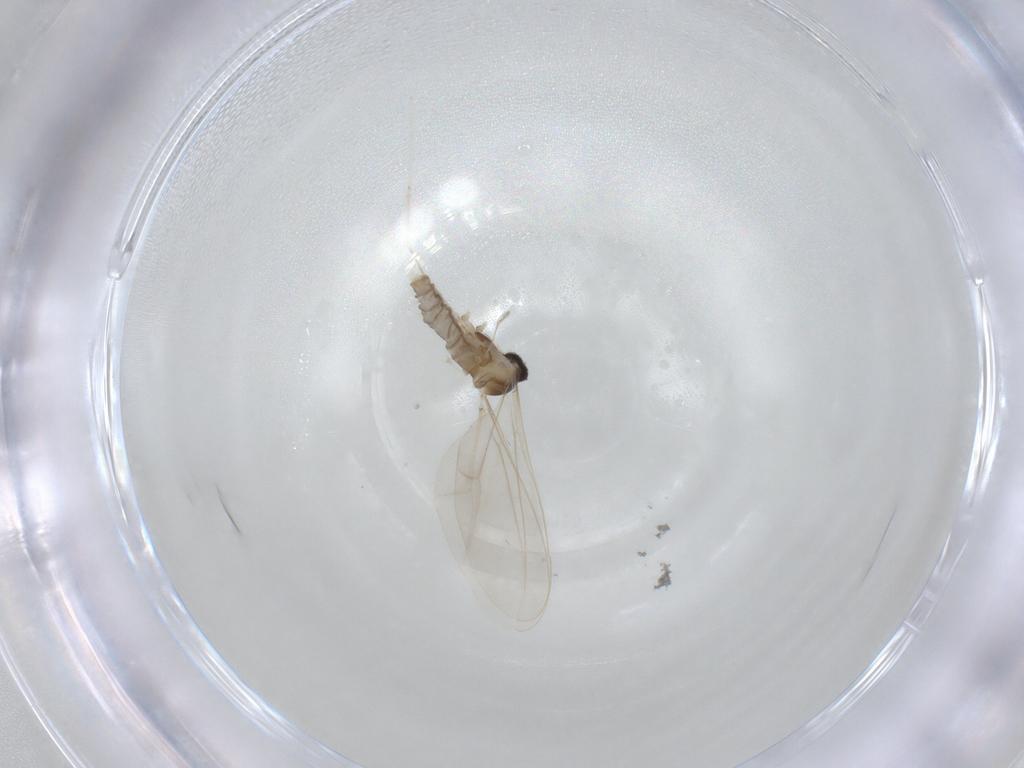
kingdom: Animalia
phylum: Arthropoda
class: Insecta
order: Diptera
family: Cecidomyiidae
